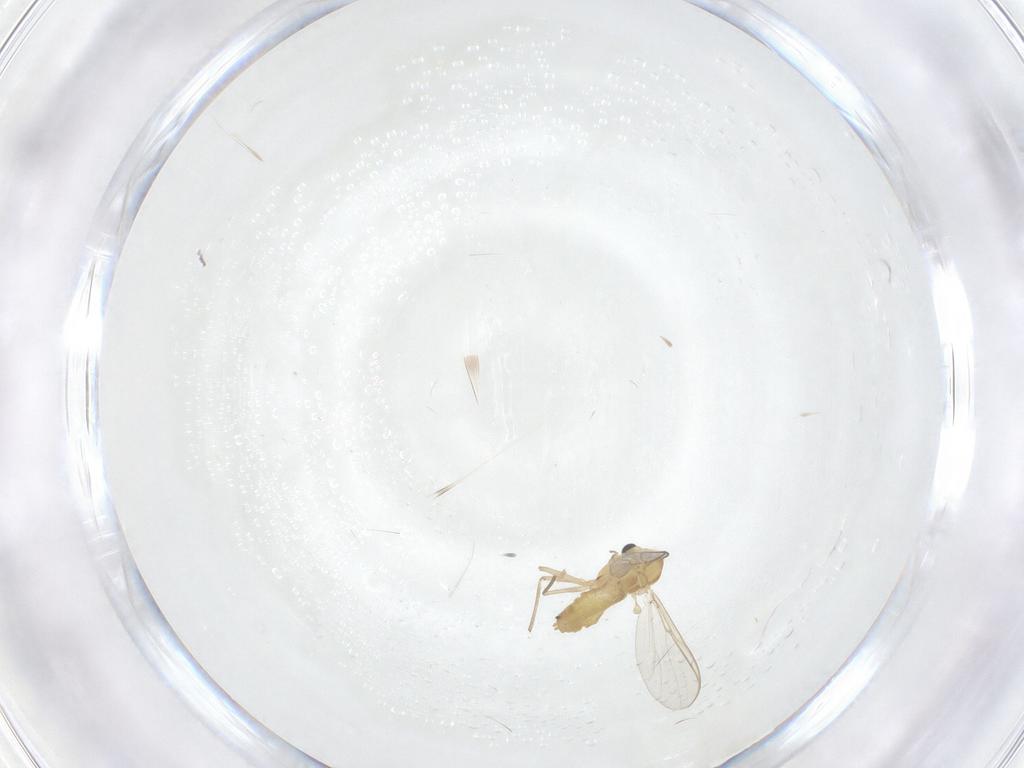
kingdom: Animalia
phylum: Arthropoda
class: Insecta
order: Diptera
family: Chironomidae
